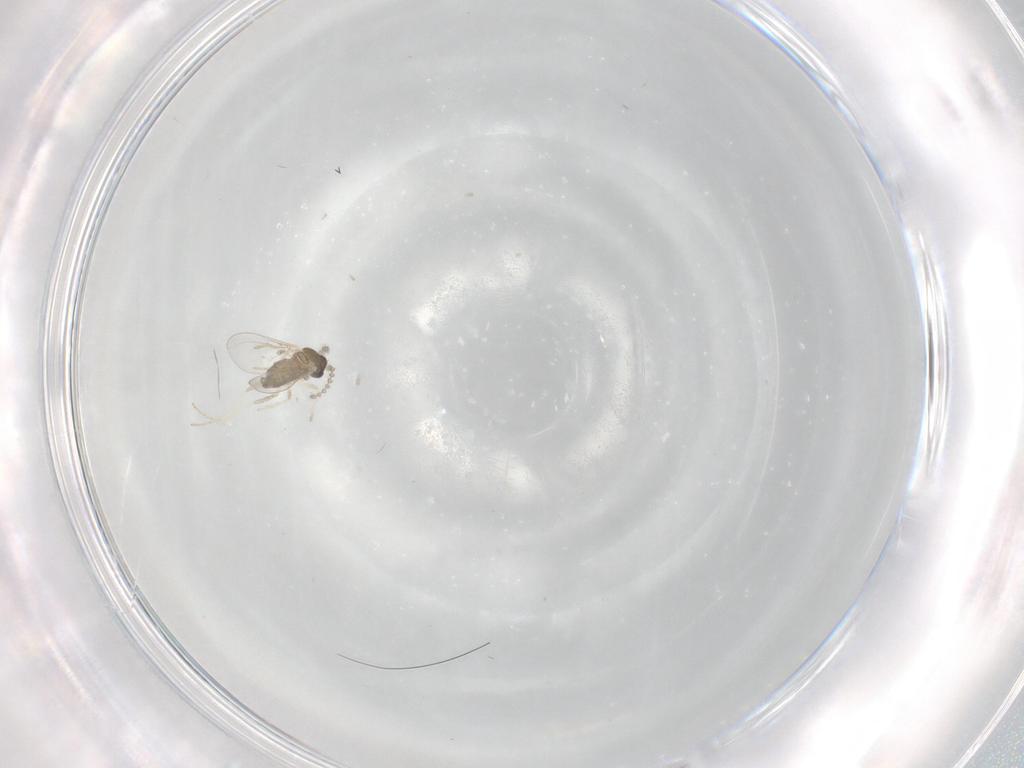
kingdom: Animalia
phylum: Arthropoda
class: Insecta
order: Diptera
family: Cecidomyiidae
